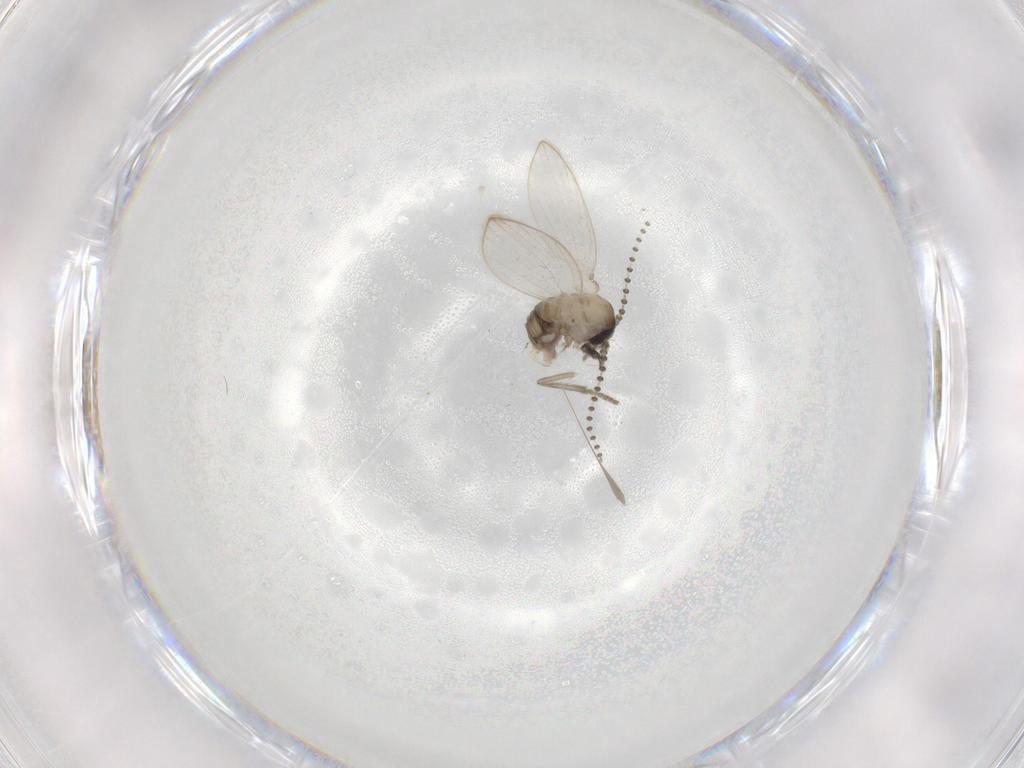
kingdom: Animalia
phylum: Arthropoda
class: Insecta
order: Diptera
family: Psychodidae
